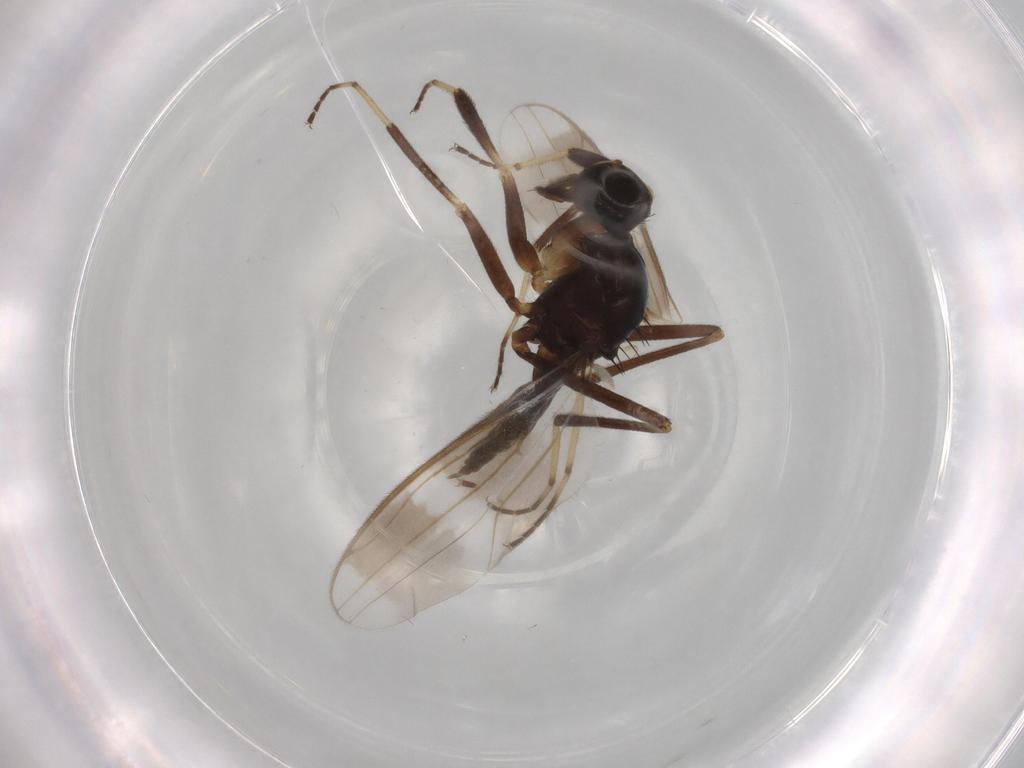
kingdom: Animalia
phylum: Arthropoda
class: Insecta
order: Diptera
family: Hybotidae
